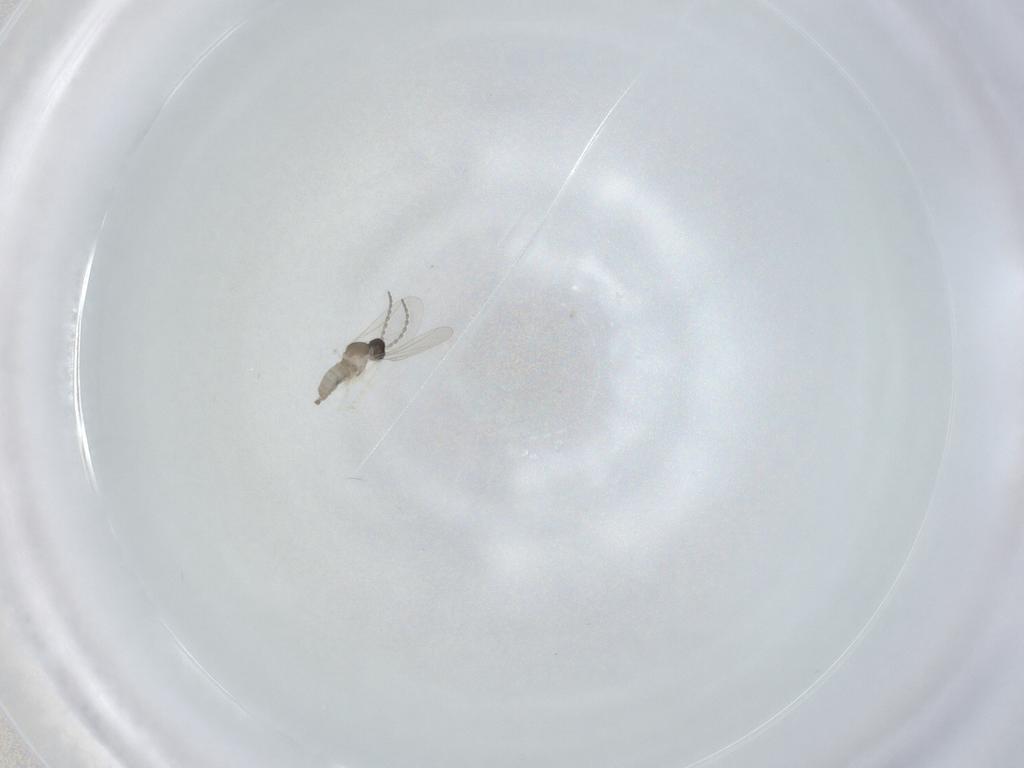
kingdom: Animalia
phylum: Arthropoda
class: Insecta
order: Diptera
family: Cecidomyiidae
